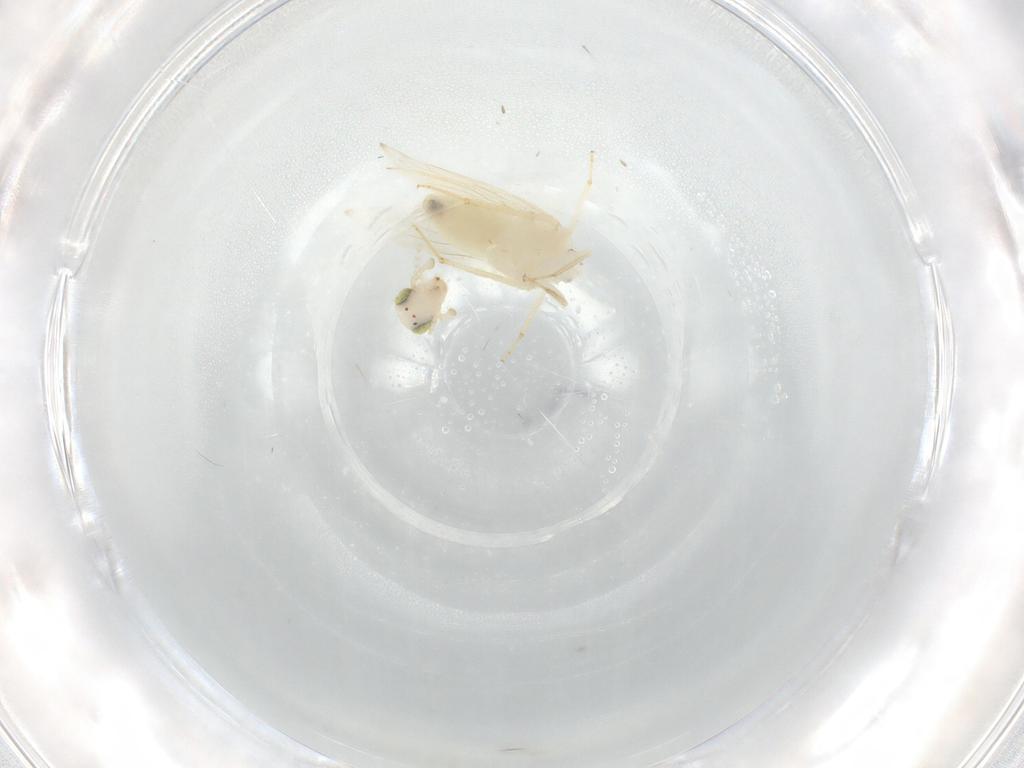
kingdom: Animalia
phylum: Arthropoda
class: Insecta
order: Psocodea
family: Lepidopsocidae
